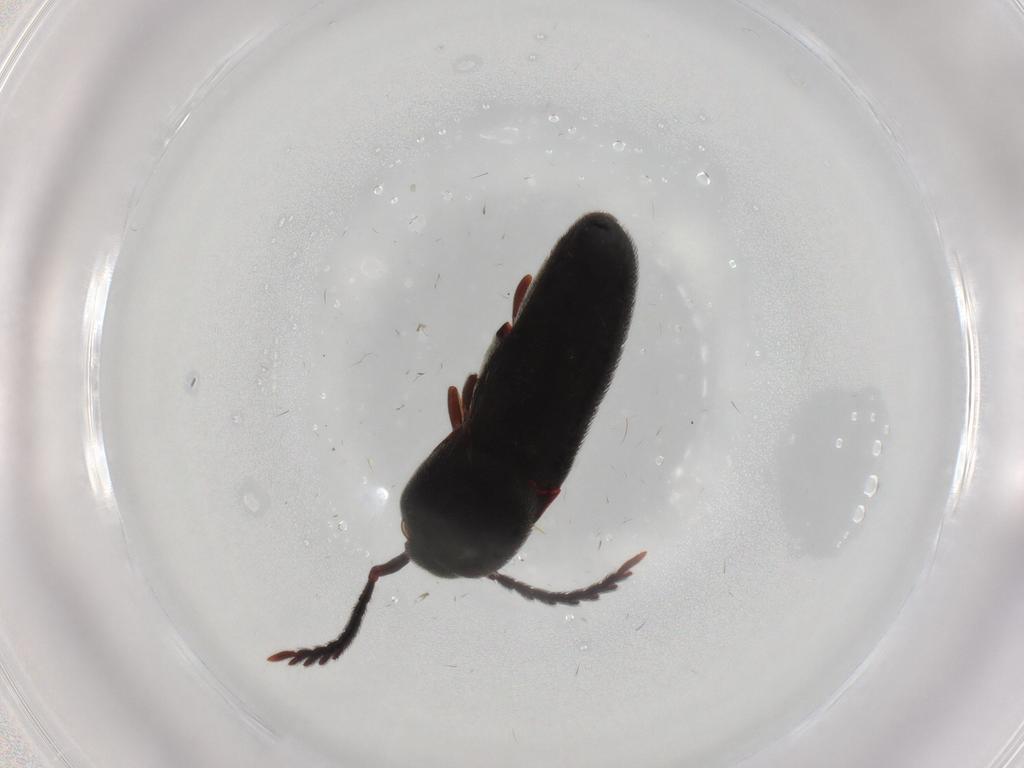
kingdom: Animalia
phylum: Arthropoda
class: Insecta
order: Coleoptera
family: Eucnemidae
